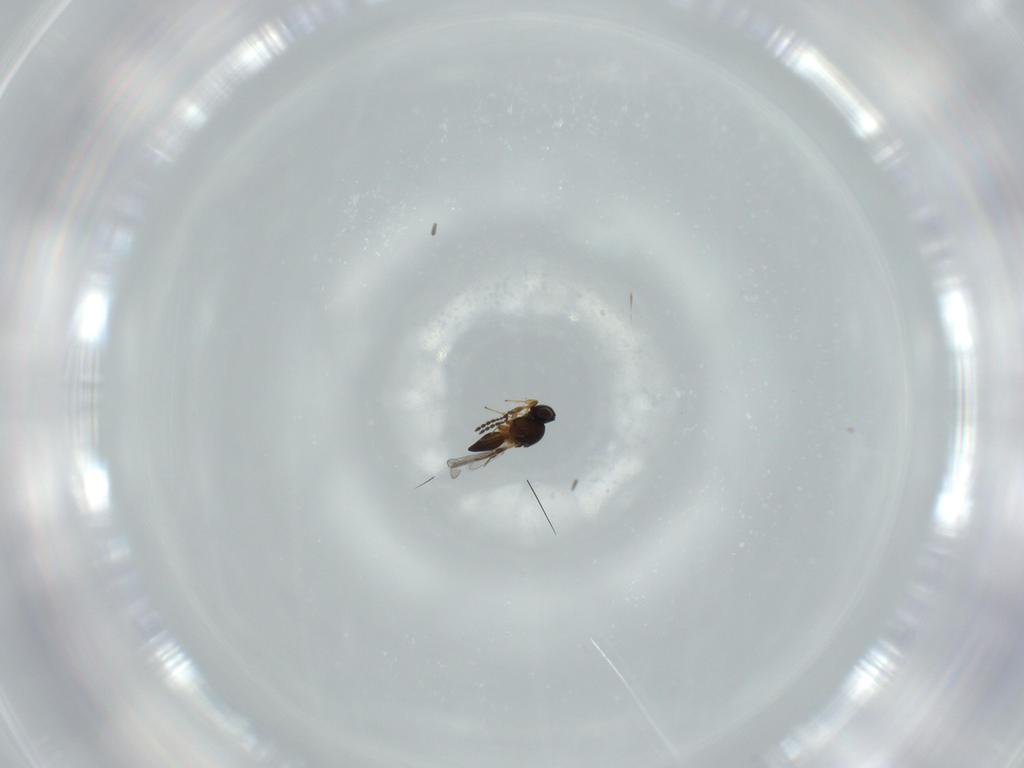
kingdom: Animalia
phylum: Arthropoda
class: Insecta
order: Hymenoptera
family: Platygastridae
